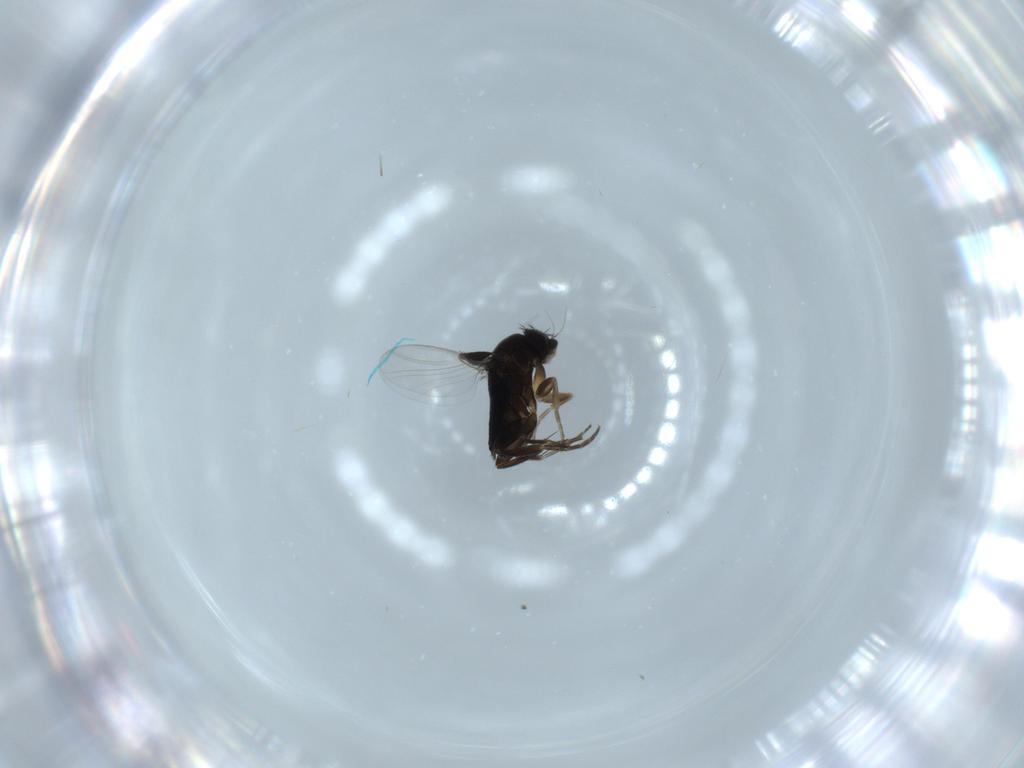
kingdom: Animalia
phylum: Arthropoda
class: Insecta
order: Diptera
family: Phoridae
